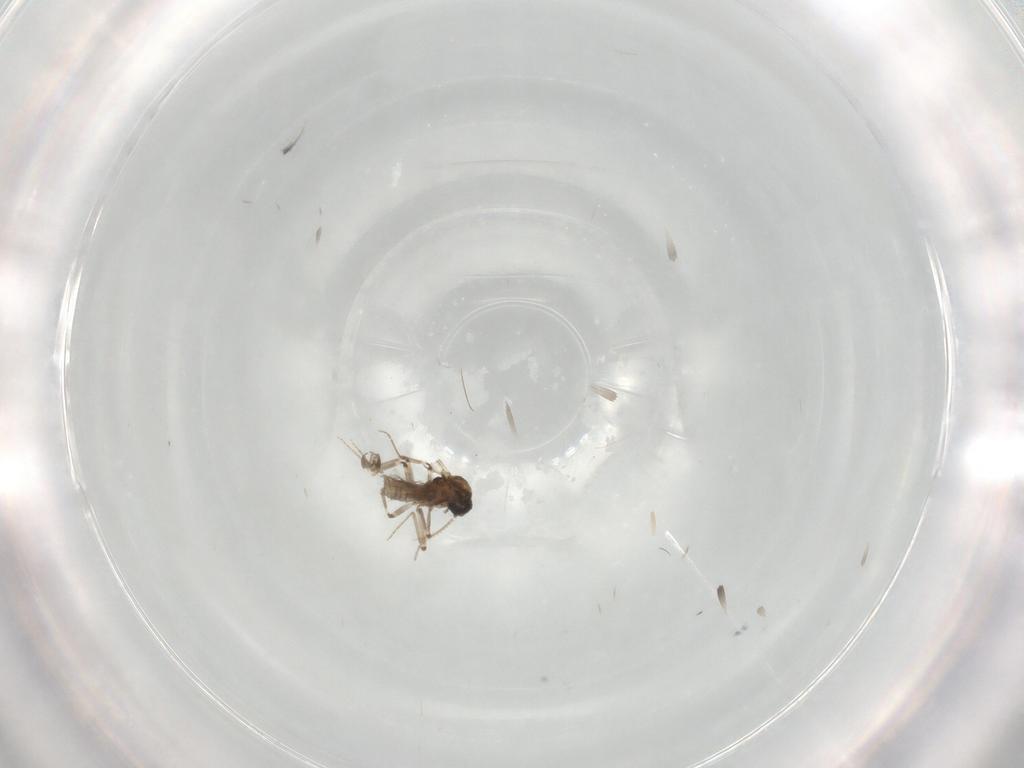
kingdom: Animalia
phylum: Arthropoda
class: Insecta
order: Diptera
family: Chironomidae
